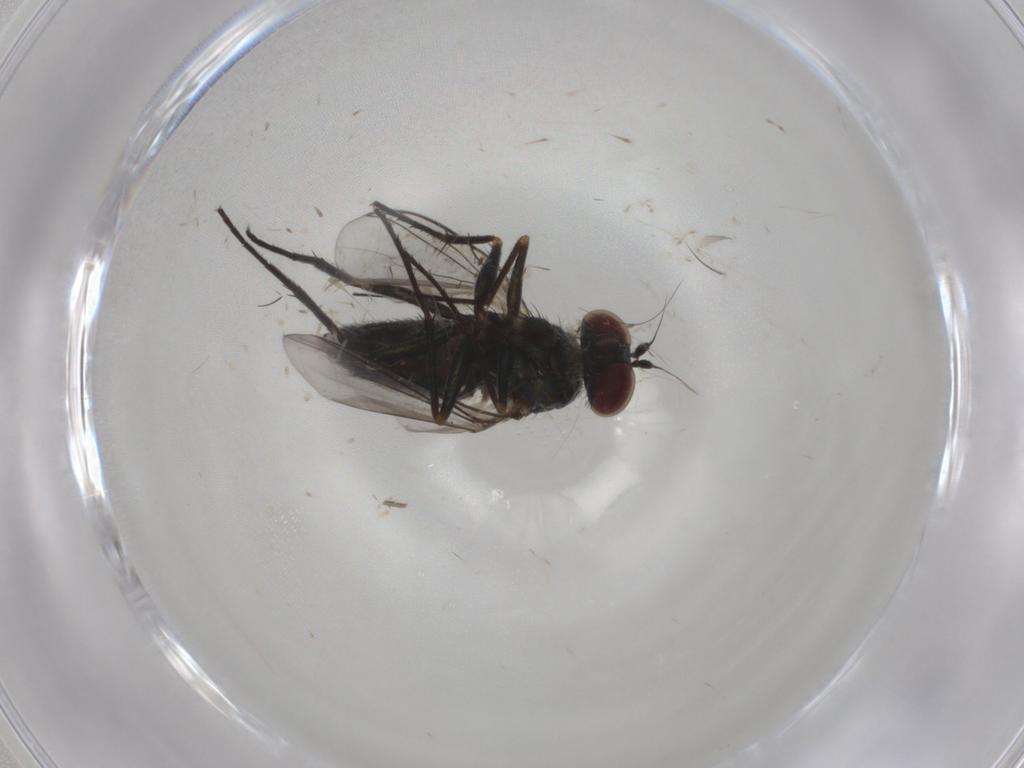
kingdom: Animalia
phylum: Arthropoda
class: Insecta
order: Diptera
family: Dolichopodidae
